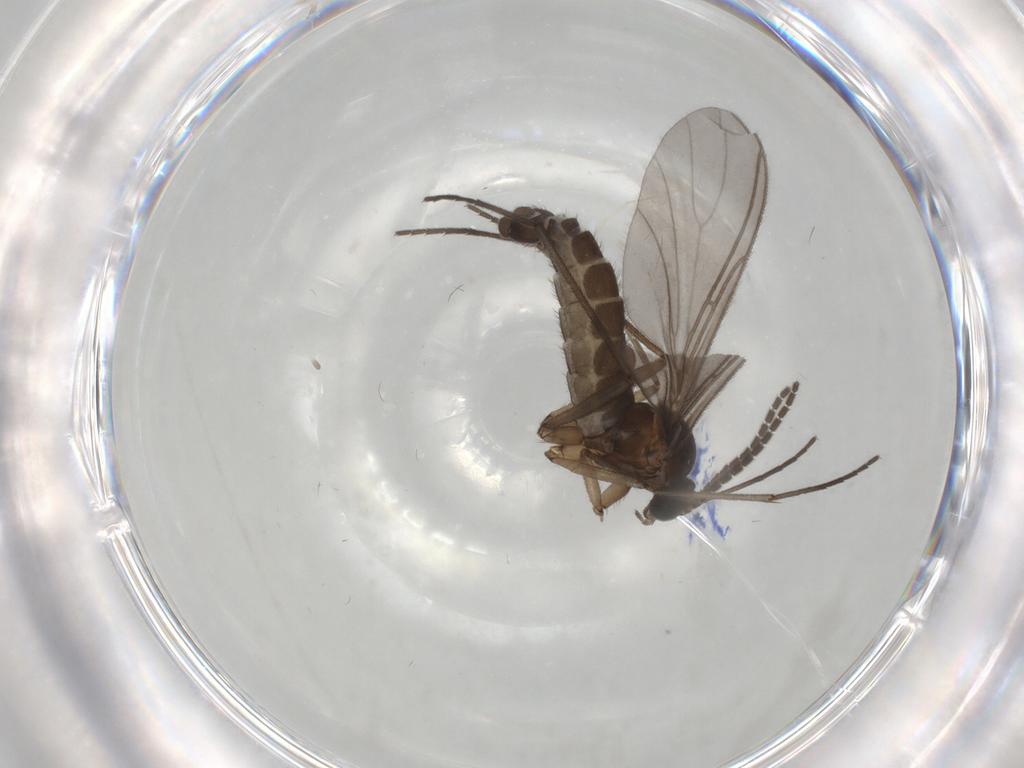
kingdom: Animalia
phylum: Arthropoda
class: Insecta
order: Diptera
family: Sciaridae
